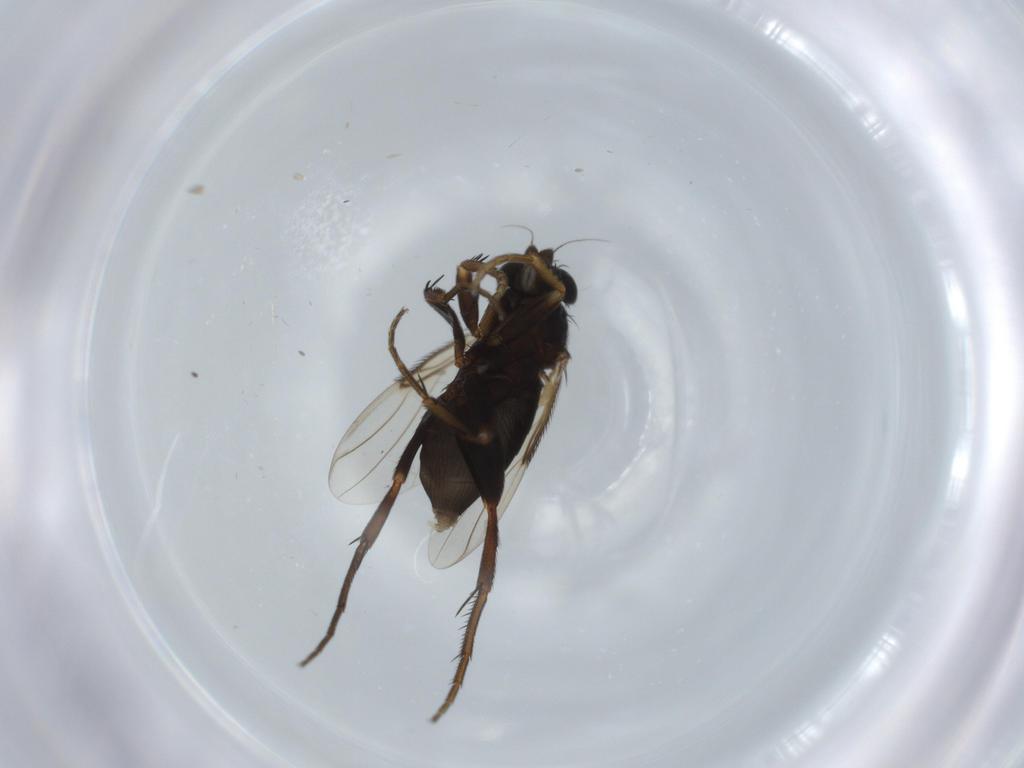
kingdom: Animalia
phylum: Arthropoda
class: Insecta
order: Diptera
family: Phoridae
